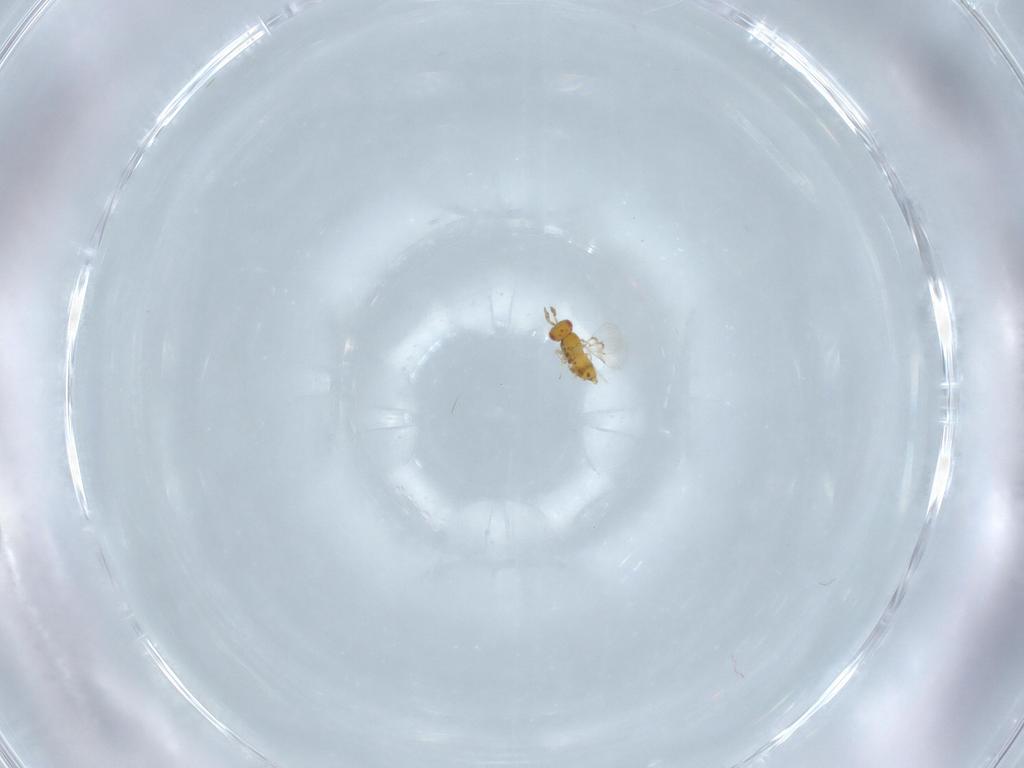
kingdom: Animalia
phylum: Arthropoda
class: Insecta
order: Hymenoptera
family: Trichogrammatidae
